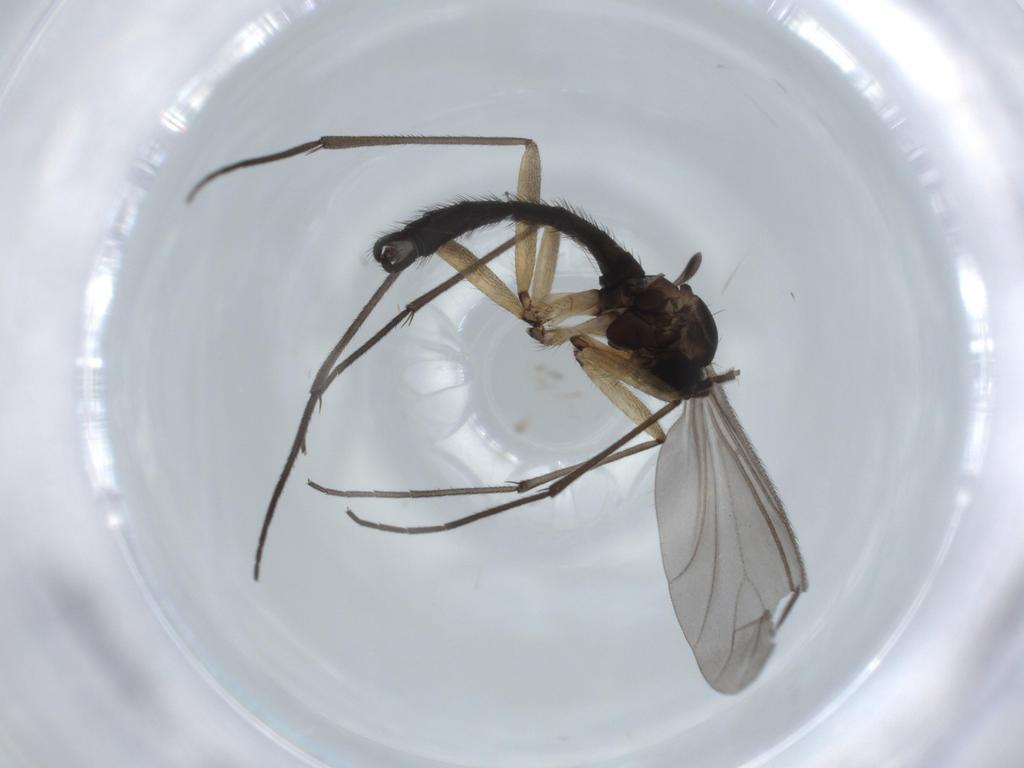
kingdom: Animalia
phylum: Arthropoda
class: Insecta
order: Diptera
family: Sciaridae
